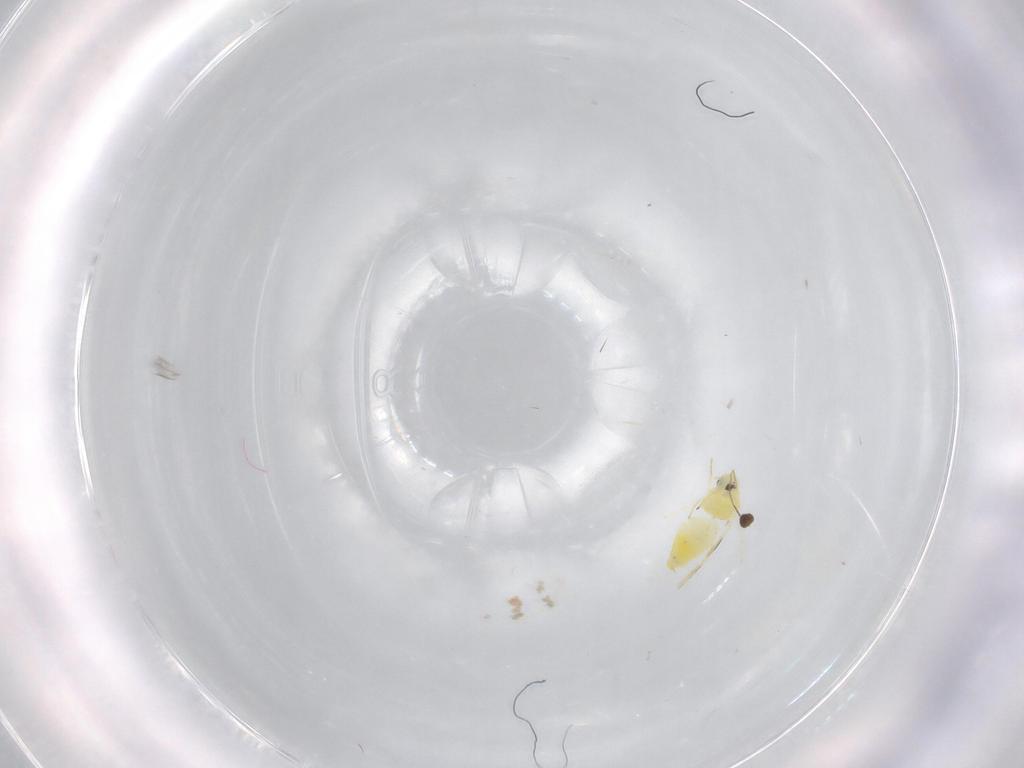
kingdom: Animalia
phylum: Arthropoda
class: Insecta
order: Hemiptera
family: Aleyrodidae
